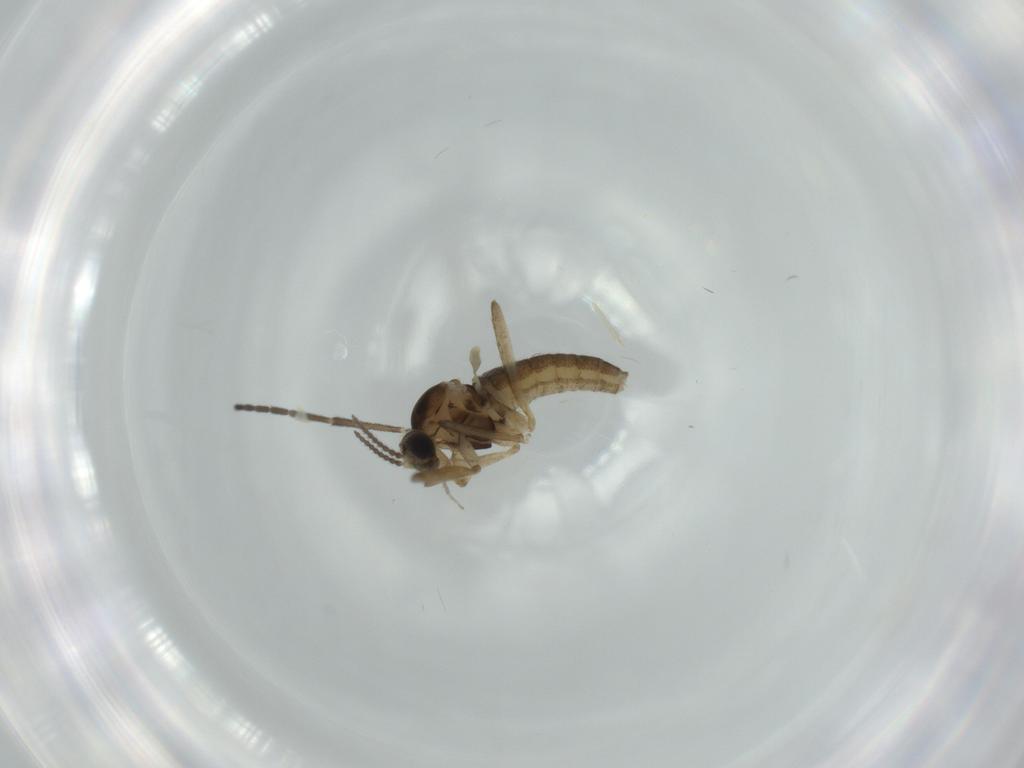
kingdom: Animalia
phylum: Arthropoda
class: Insecta
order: Diptera
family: Cecidomyiidae
